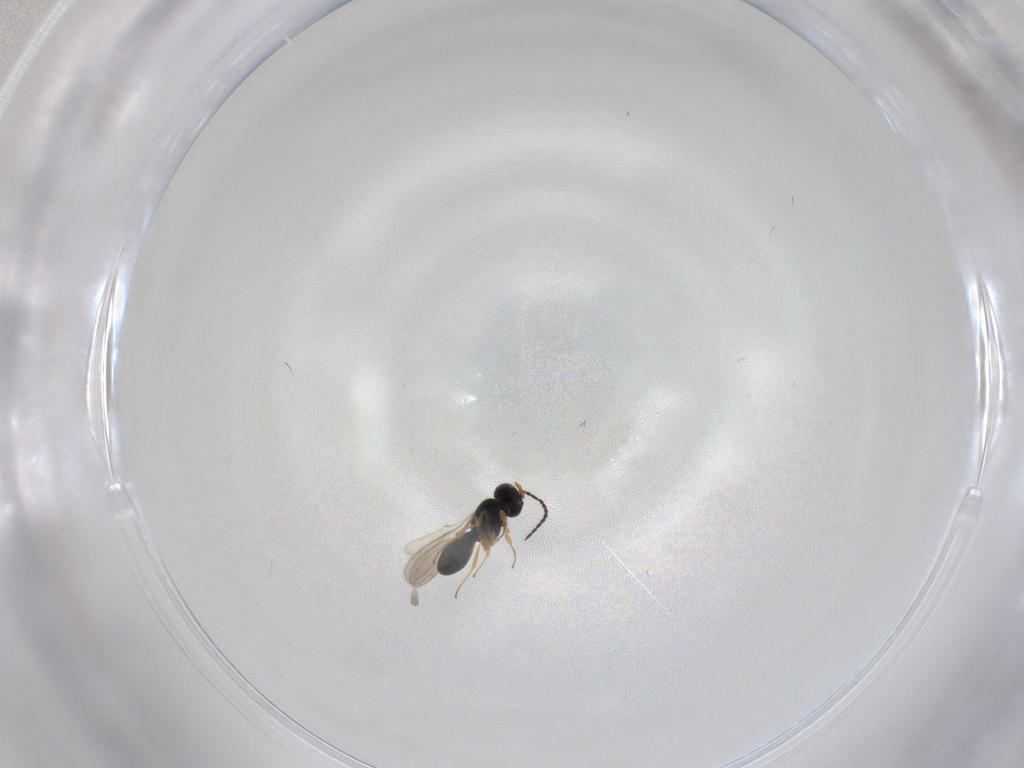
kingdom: Animalia
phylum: Arthropoda
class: Insecta
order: Hymenoptera
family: Scelionidae
